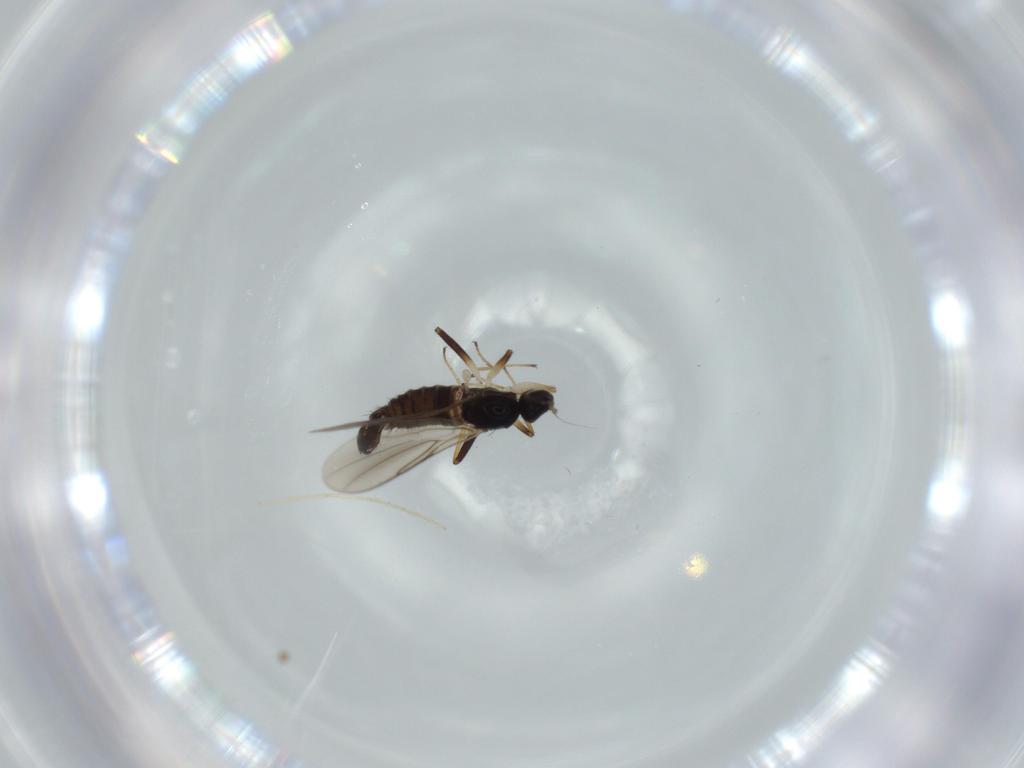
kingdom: Animalia
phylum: Arthropoda
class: Insecta
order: Diptera
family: Hybotidae
